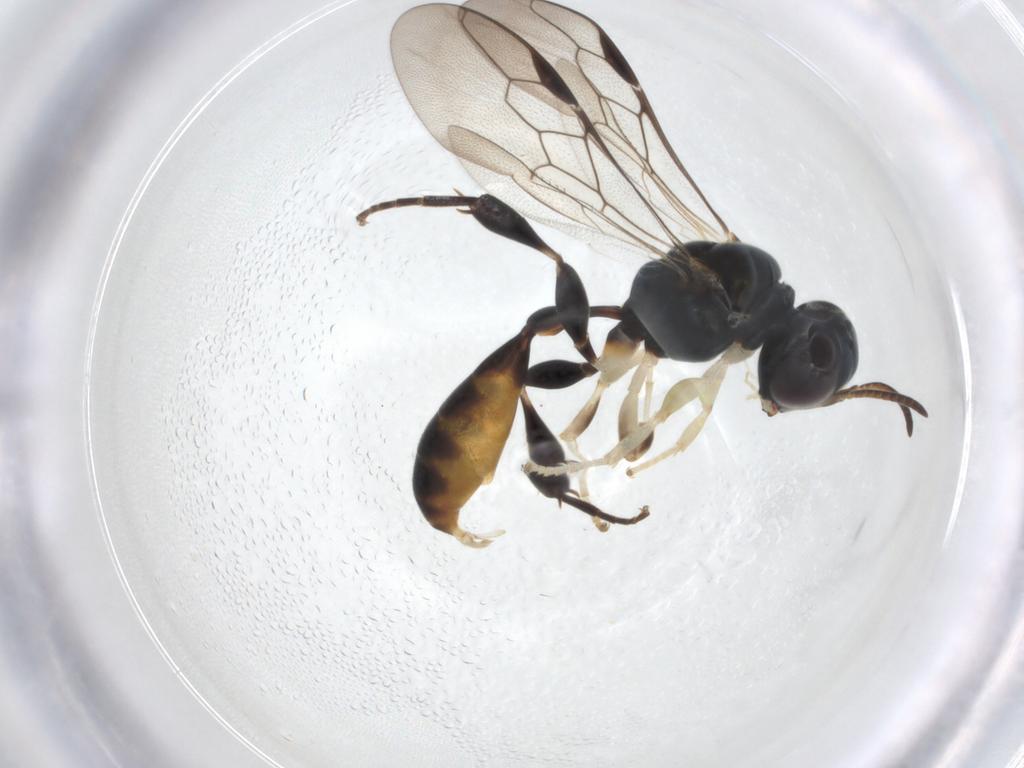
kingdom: Animalia
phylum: Arthropoda
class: Insecta
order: Hymenoptera
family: Crabronidae
